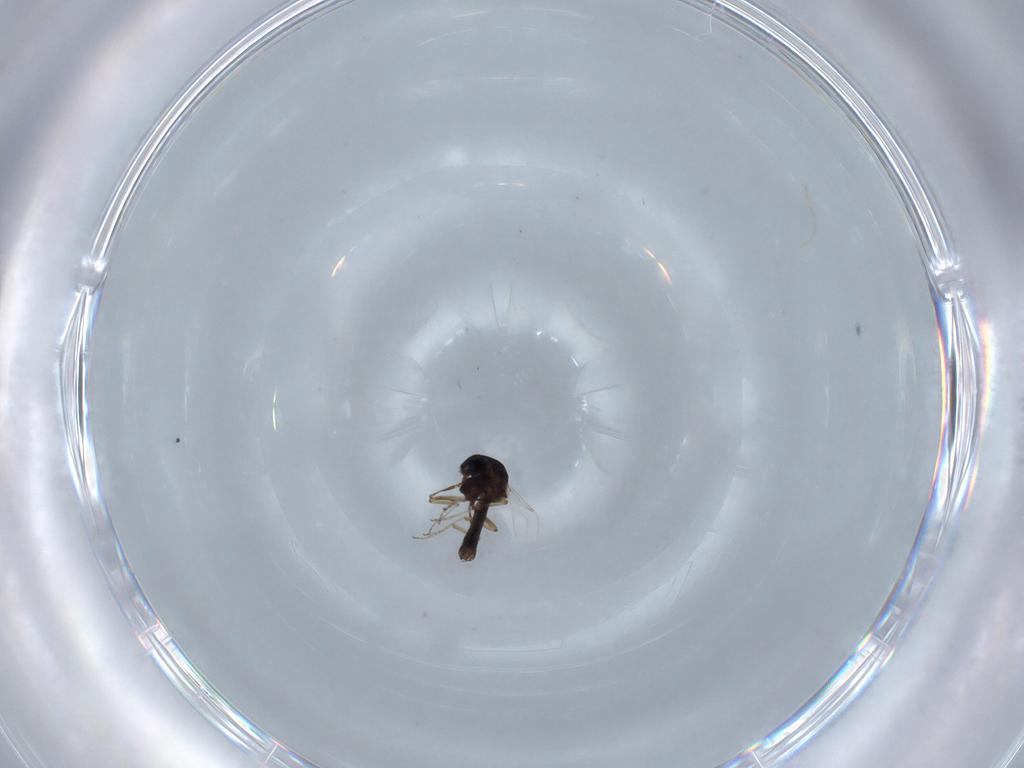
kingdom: Animalia
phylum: Arthropoda
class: Insecta
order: Diptera
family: Ceratopogonidae
